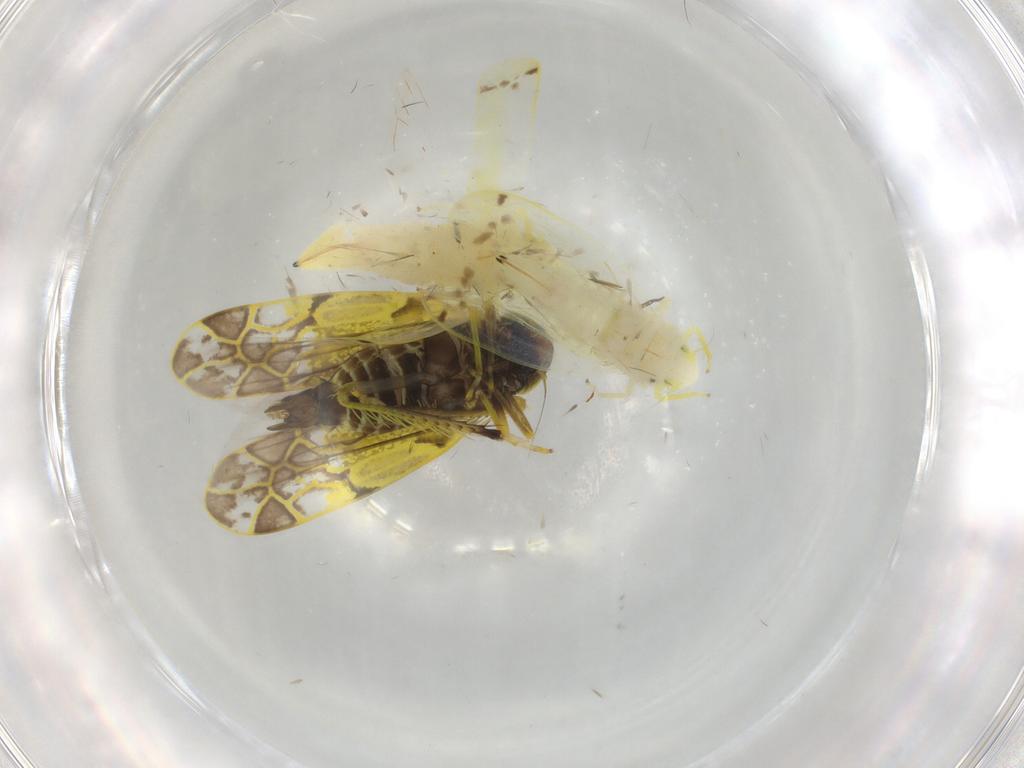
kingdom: Animalia
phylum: Arthropoda
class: Insecta
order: Hemiptera
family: Cicadellidae
